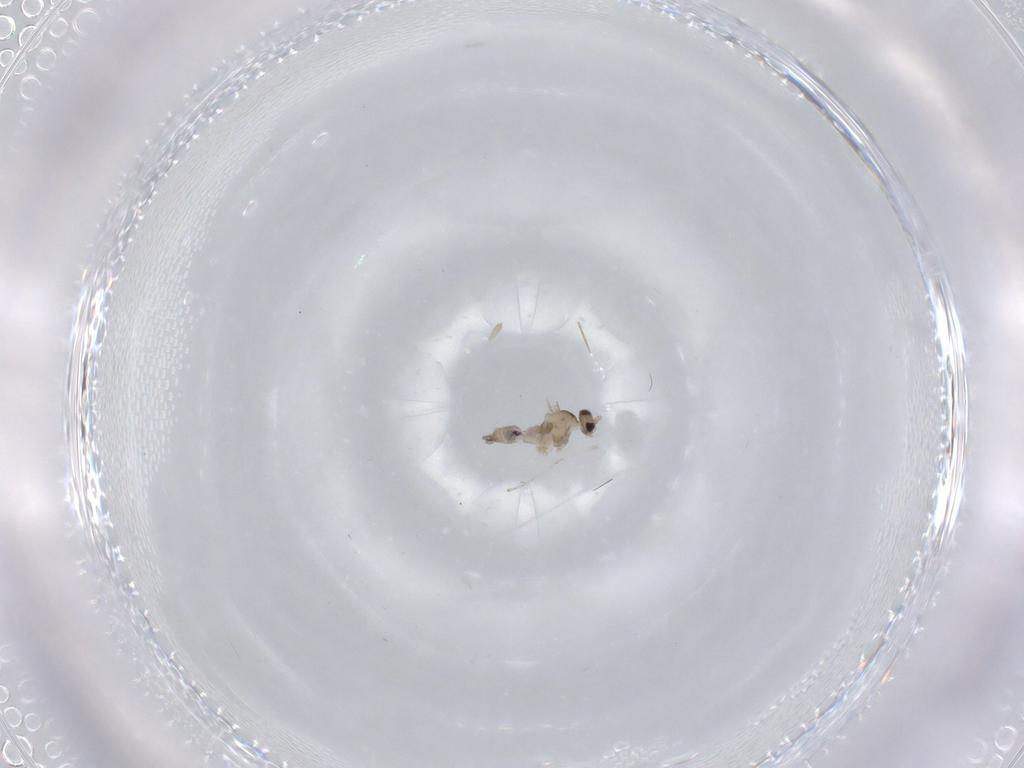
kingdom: Animalia
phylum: Arthropoda
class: Insecta
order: Diptera
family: Cecidomyiidae
